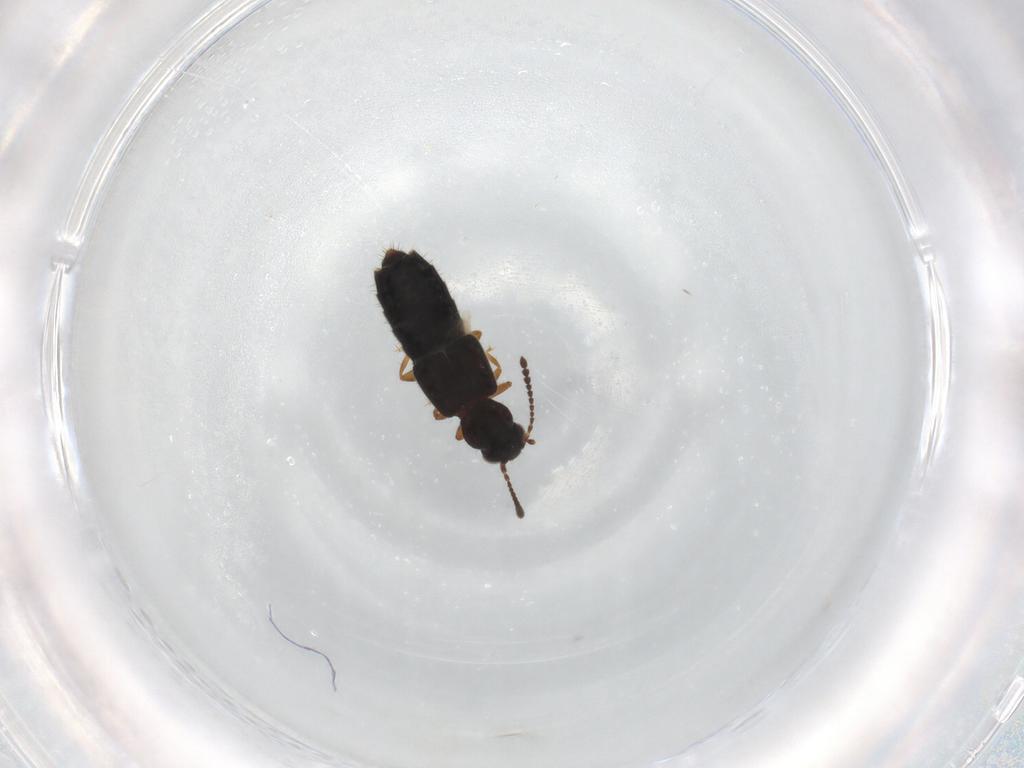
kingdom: Animalia
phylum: Arthropoda
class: Insecta
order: Coleoptera
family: Staphylinidae
